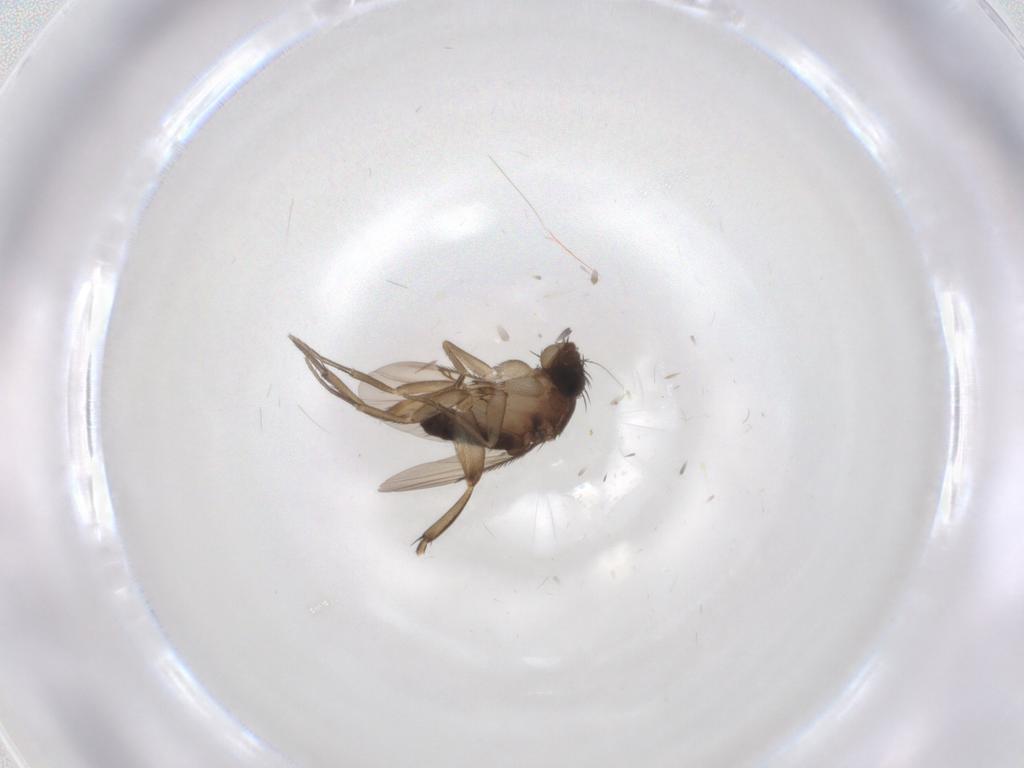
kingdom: Animalia
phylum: Arthropoda
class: Insecta
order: Diptera
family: Phoridae
